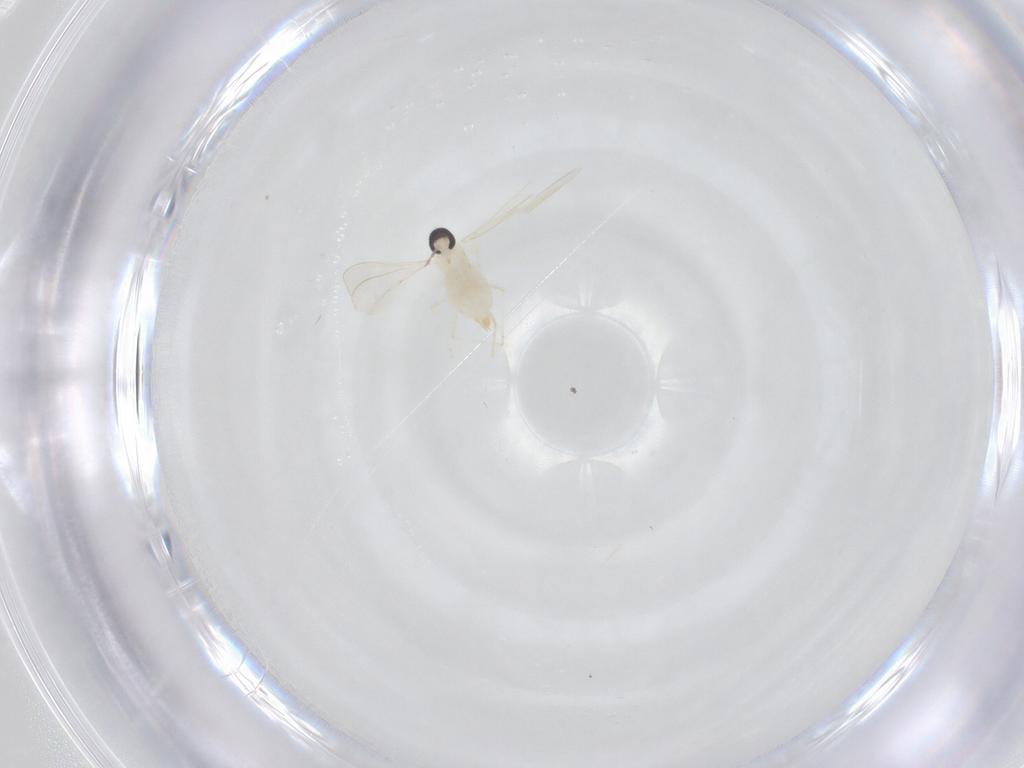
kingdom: Animalia
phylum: Arthropoda
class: Insecta
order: Diptera
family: Cecidomyiidae
